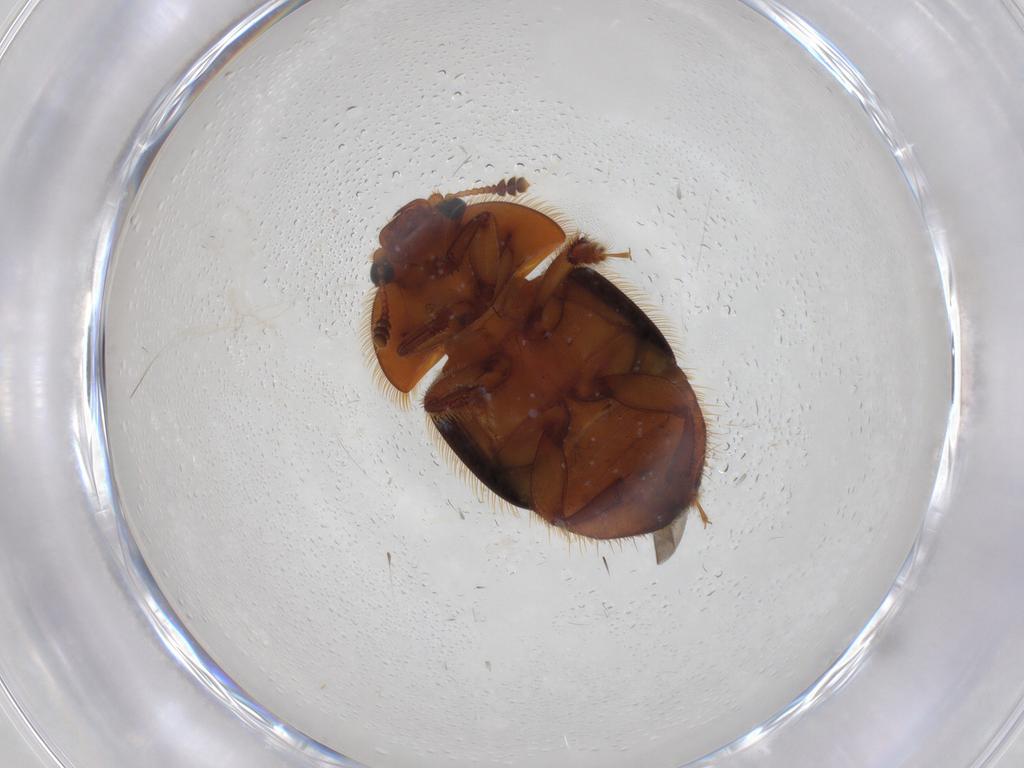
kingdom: Animalia
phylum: Arthropoda
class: Insecta
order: Coleoptera
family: Nitidulidae
